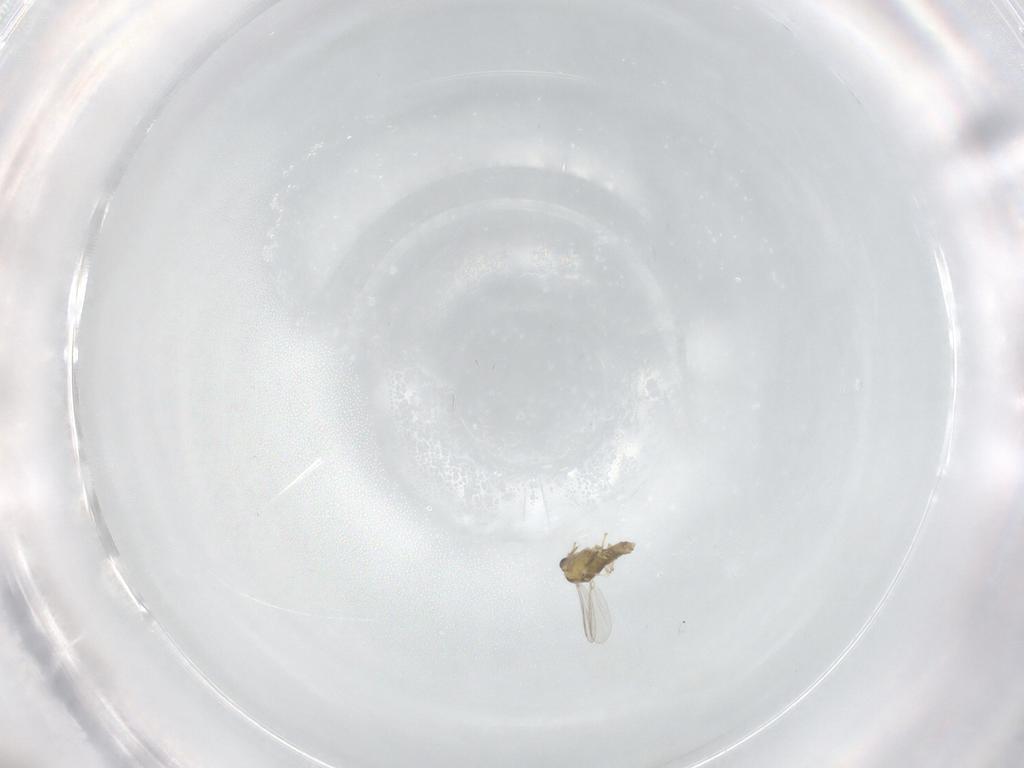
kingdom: Animalia
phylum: Arthropoda
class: Insecta
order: Diptera
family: Chironomidae
